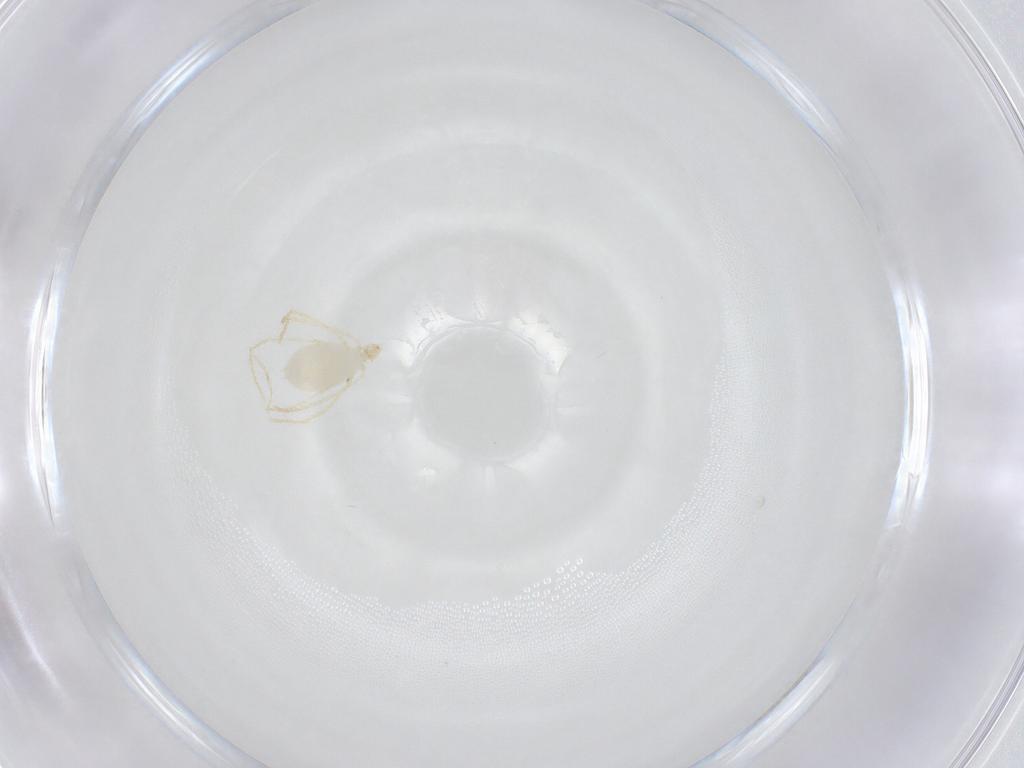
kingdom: Animalia
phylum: Arthropoda
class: Arachnida
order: Trombidiformes
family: Erythraeidae
